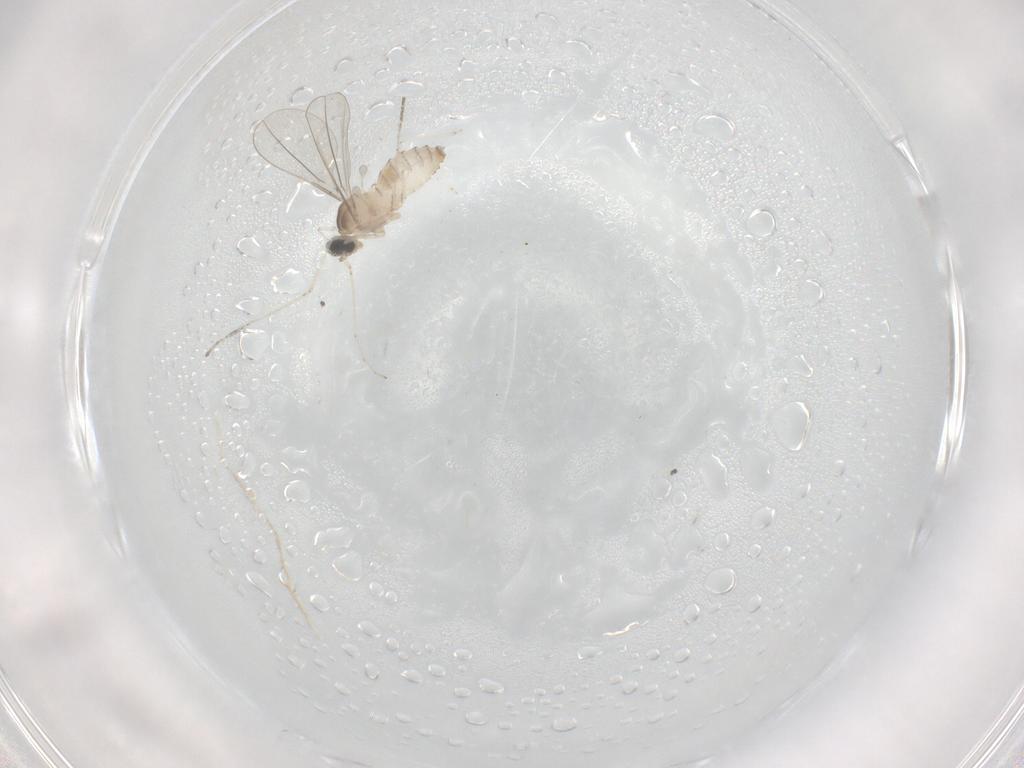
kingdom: Animalia
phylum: Arthropoda
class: Insecta
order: Diptera
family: Cecidomyiidae
